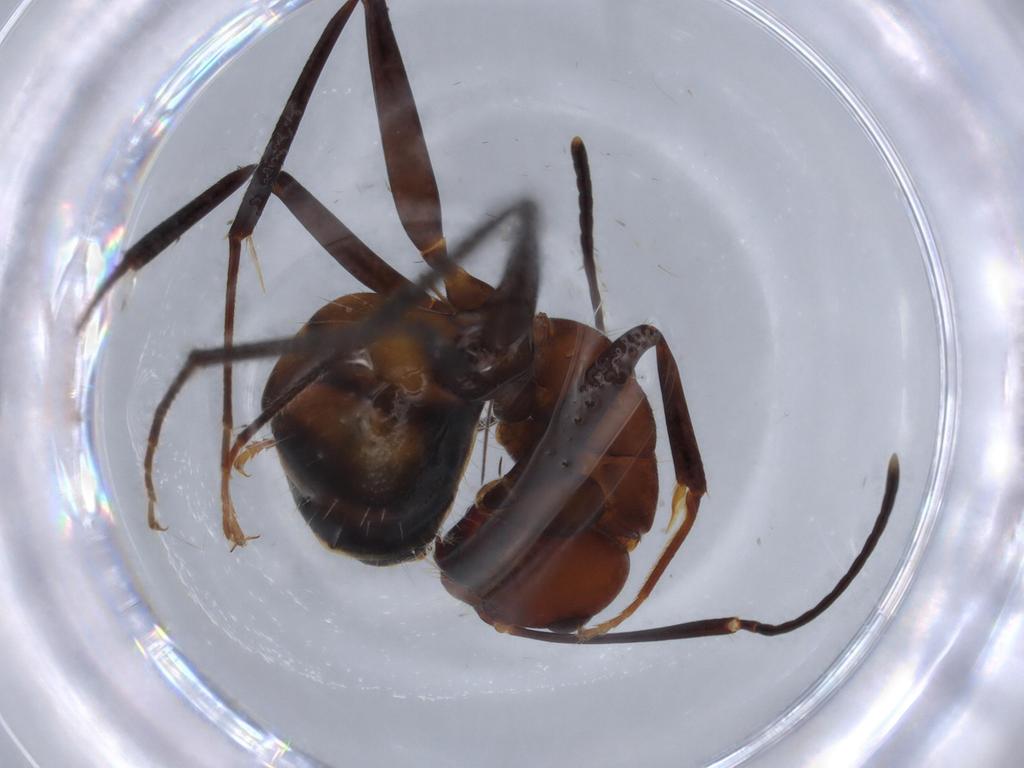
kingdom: Animalia
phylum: Arthropoda
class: Insecta
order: Hymenoptera
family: Formicidae
